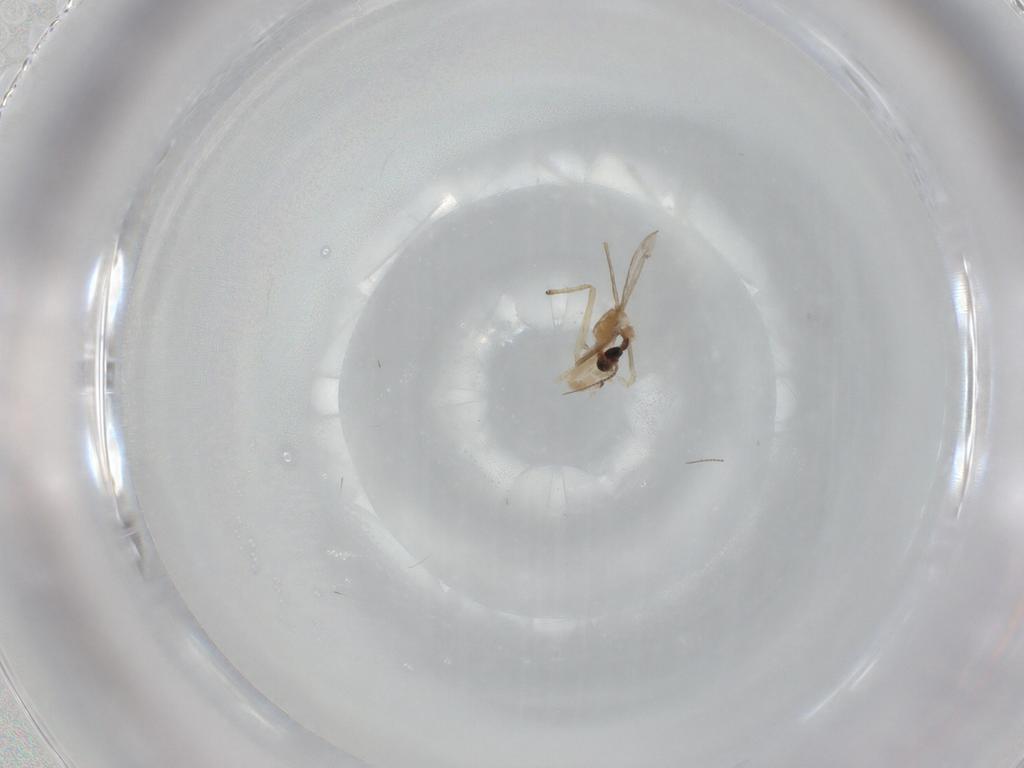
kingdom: Animalia
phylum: Arthropoda
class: Insecta
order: Diptera
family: Chironomidae
